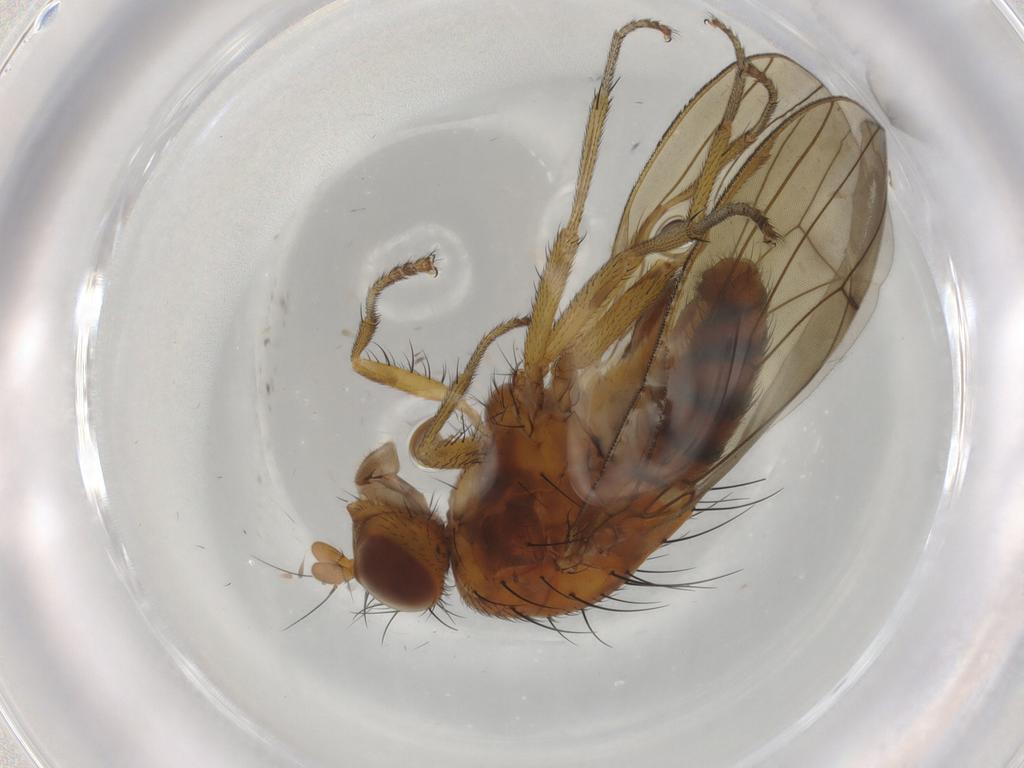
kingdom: Animalia
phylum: Arthropoda
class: Insecta
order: Diptera
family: Lauxaniidae
